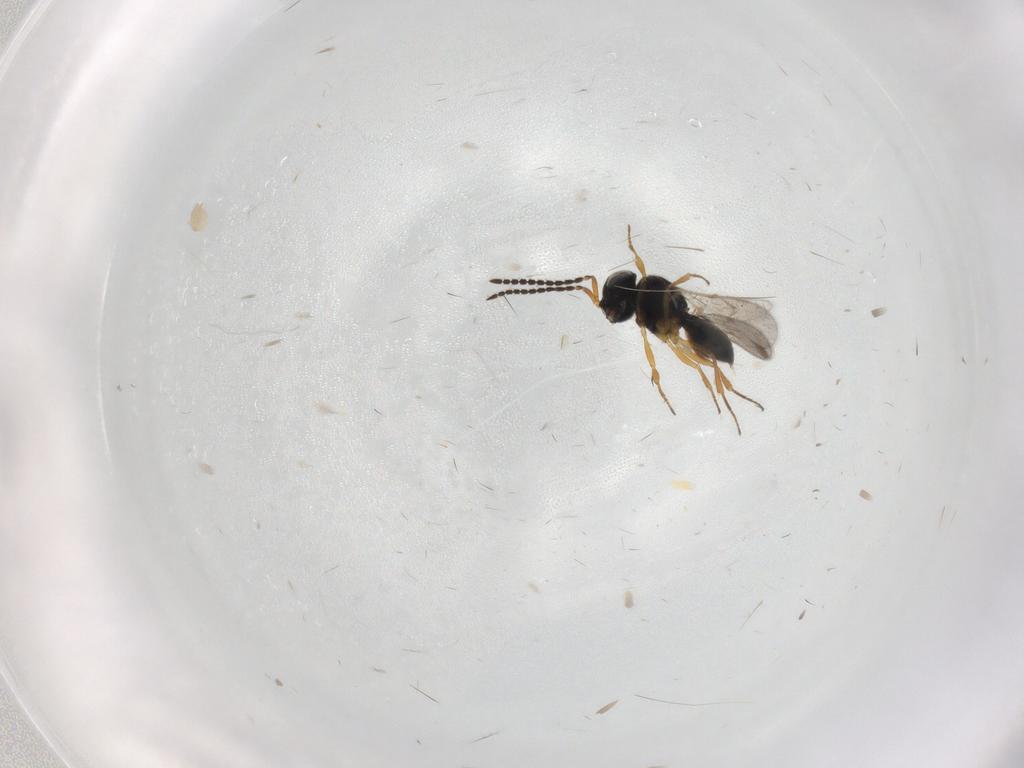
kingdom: Animalia
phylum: Arthropoda
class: Insecta
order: Hymenoptera
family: Scelionidae
